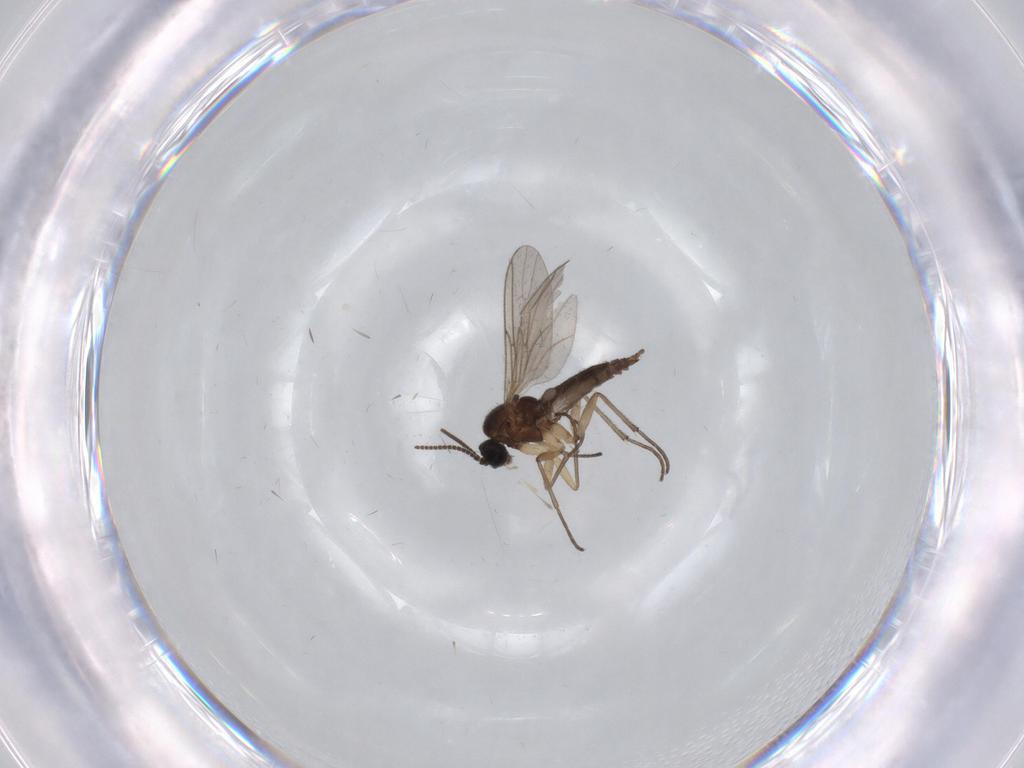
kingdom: Animalia
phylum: Arthropoda
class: Insecta
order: Diptera
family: Sciaridae
